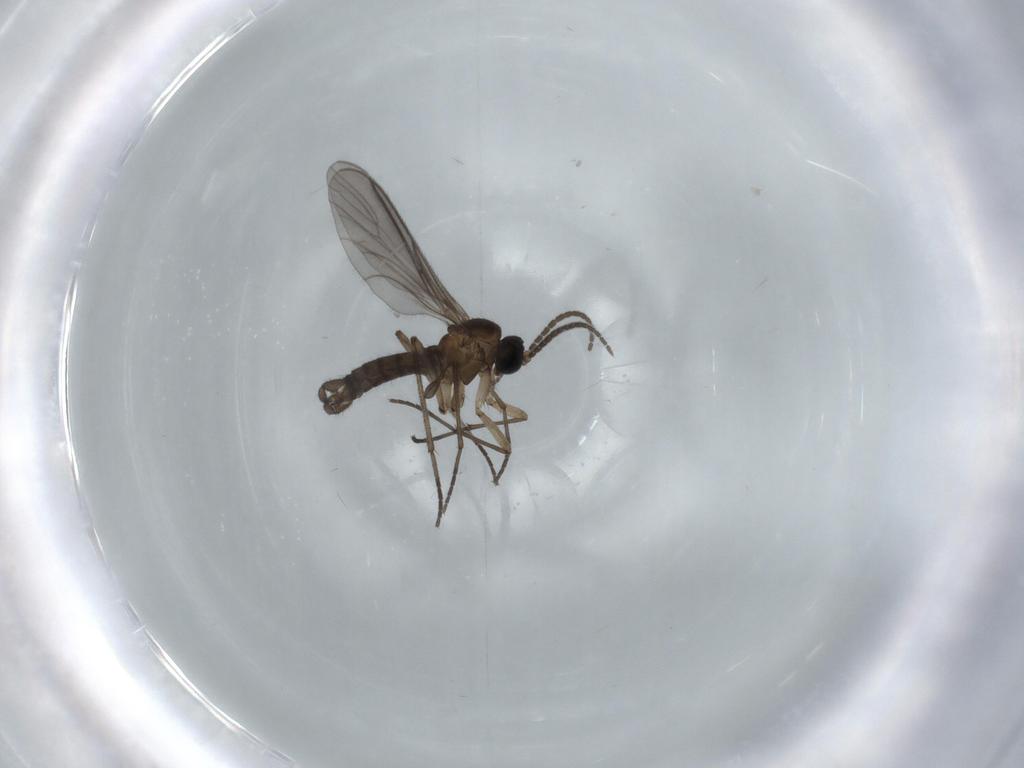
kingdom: Animalia
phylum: Arthropoda
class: Insecta
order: Diptera
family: Sciaridae
